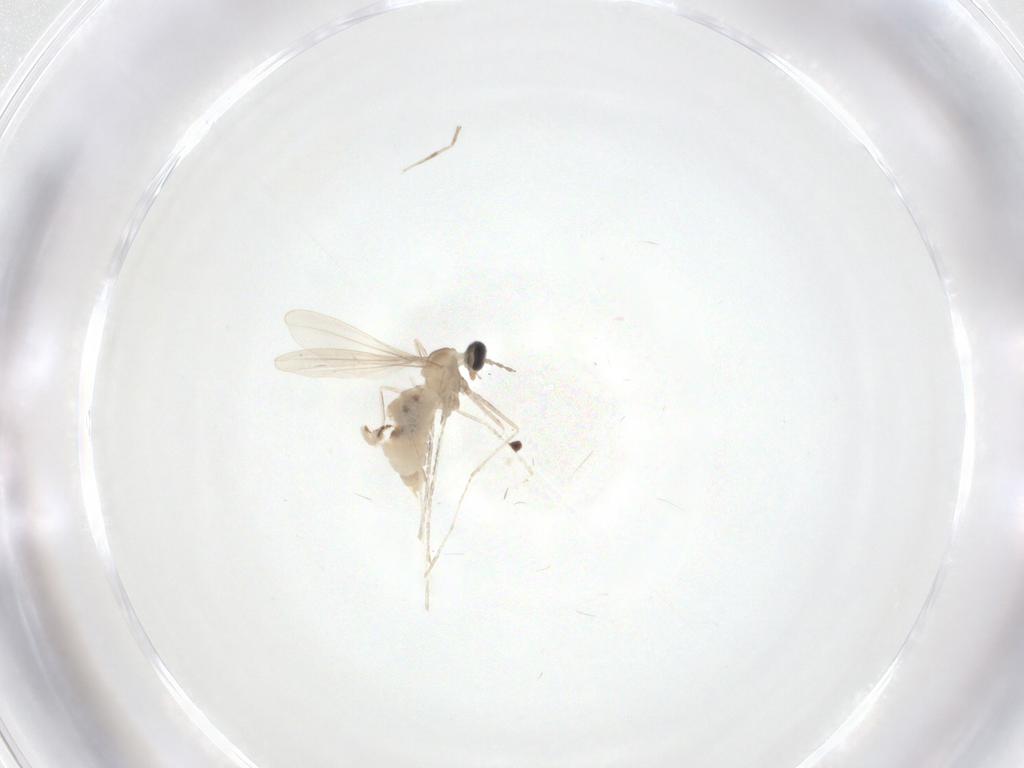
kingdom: Animalia
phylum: Arthropoda
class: Insecta
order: Diptera
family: Cecidomyiidae
